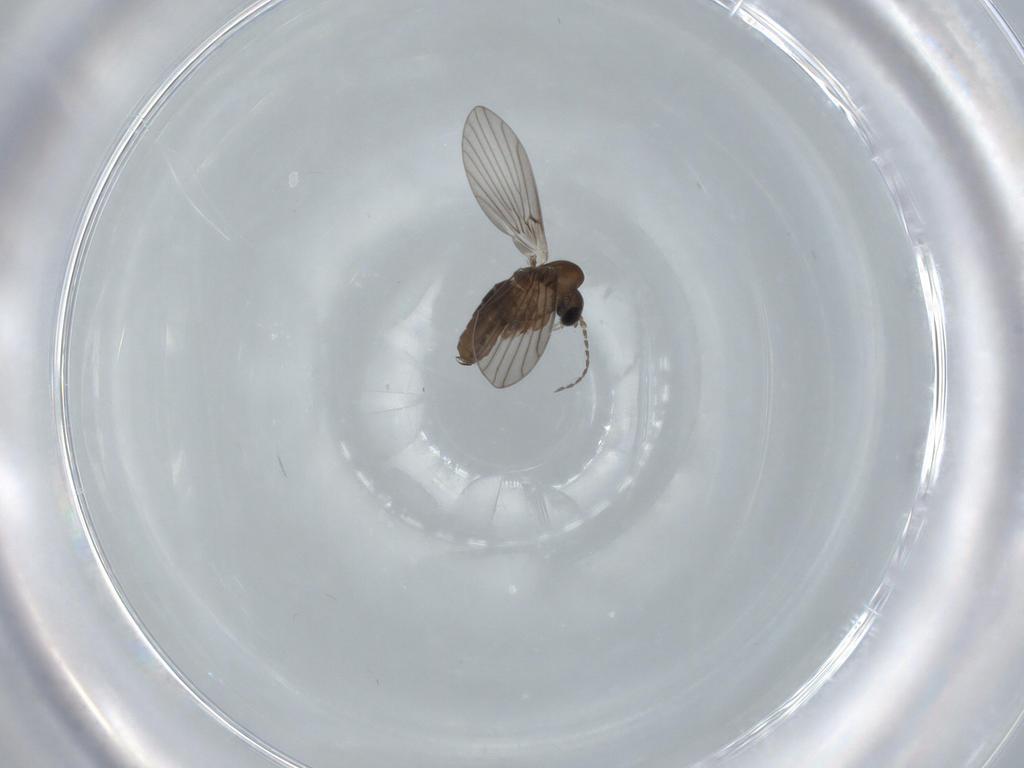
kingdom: Animalia
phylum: Arthropoda
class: Insecta
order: Diptera
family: Psychodidae
